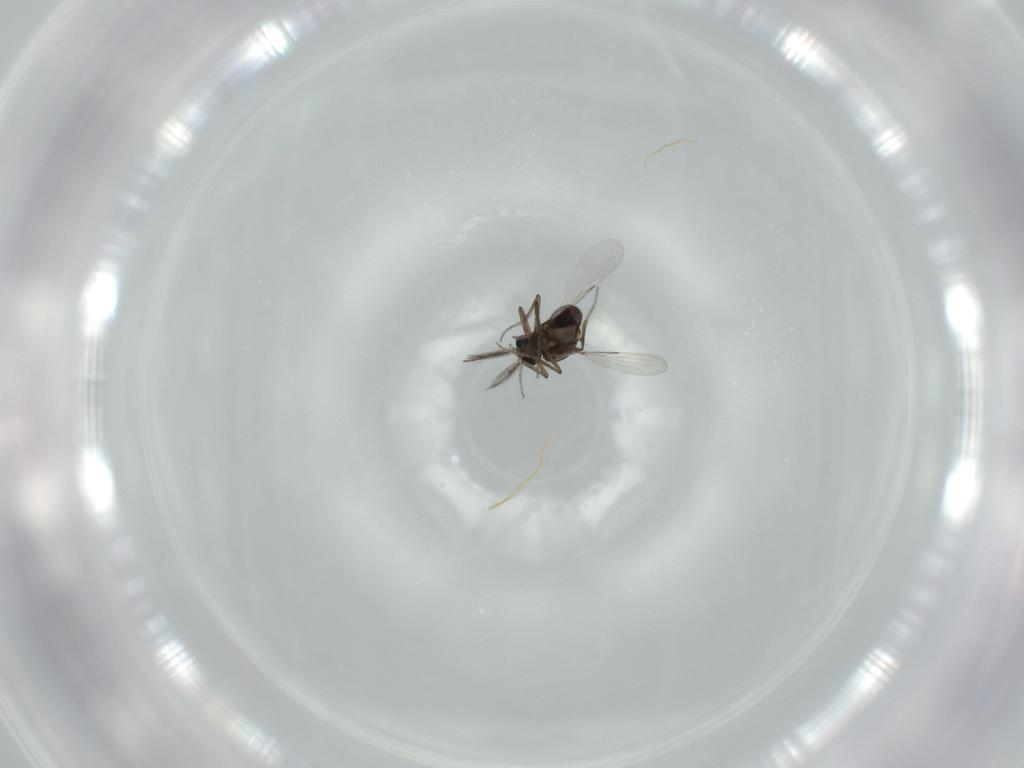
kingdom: Animalia
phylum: Arthropoda
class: Insecta
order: Diptera
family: Ceratopogonidae
